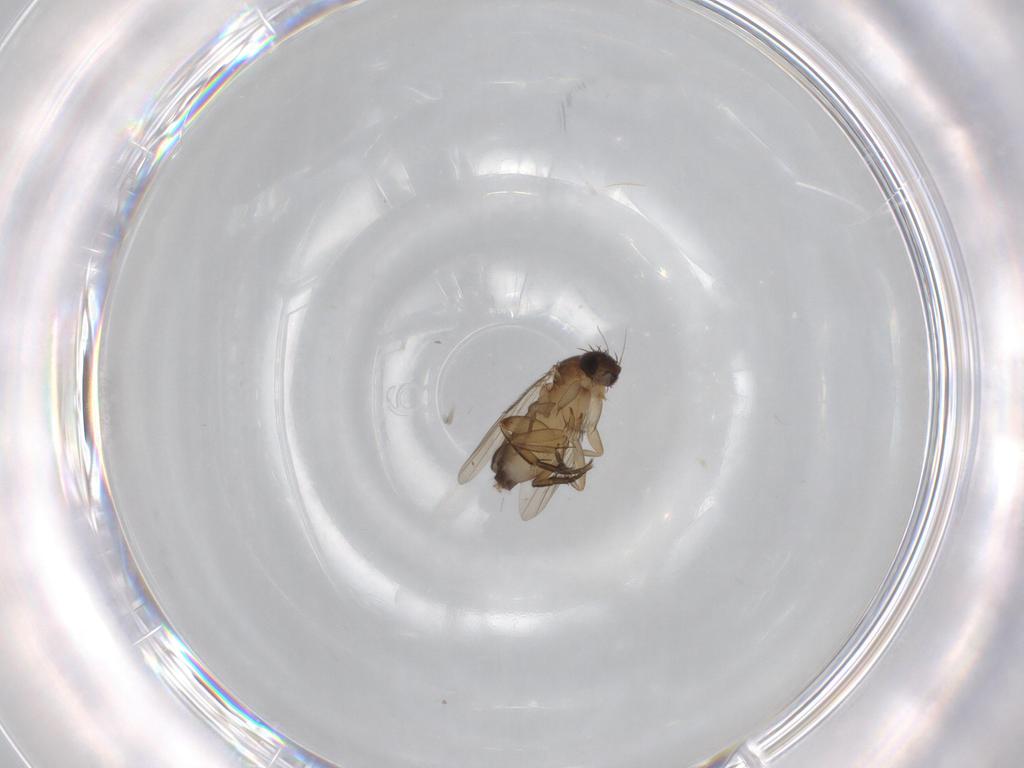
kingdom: Animalia
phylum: Arthropoda
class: Insecta
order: Diptera
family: Phoridae
